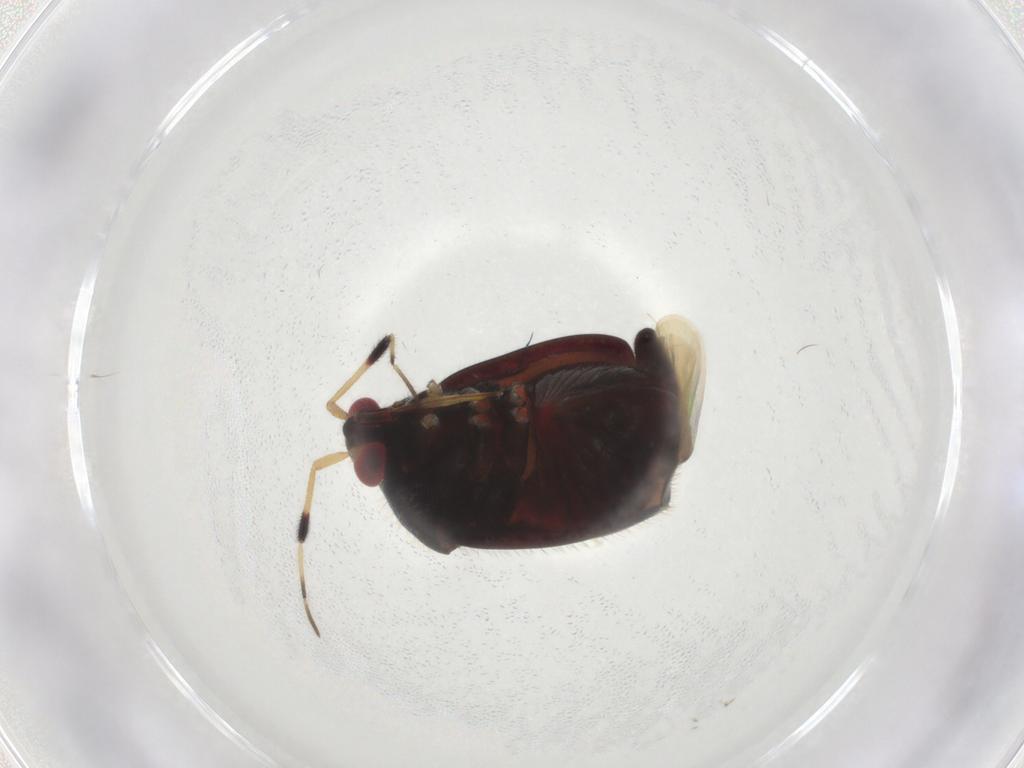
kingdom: Animalia
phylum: Arthropoda
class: Insecta
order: Hemiptera
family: Miridae
